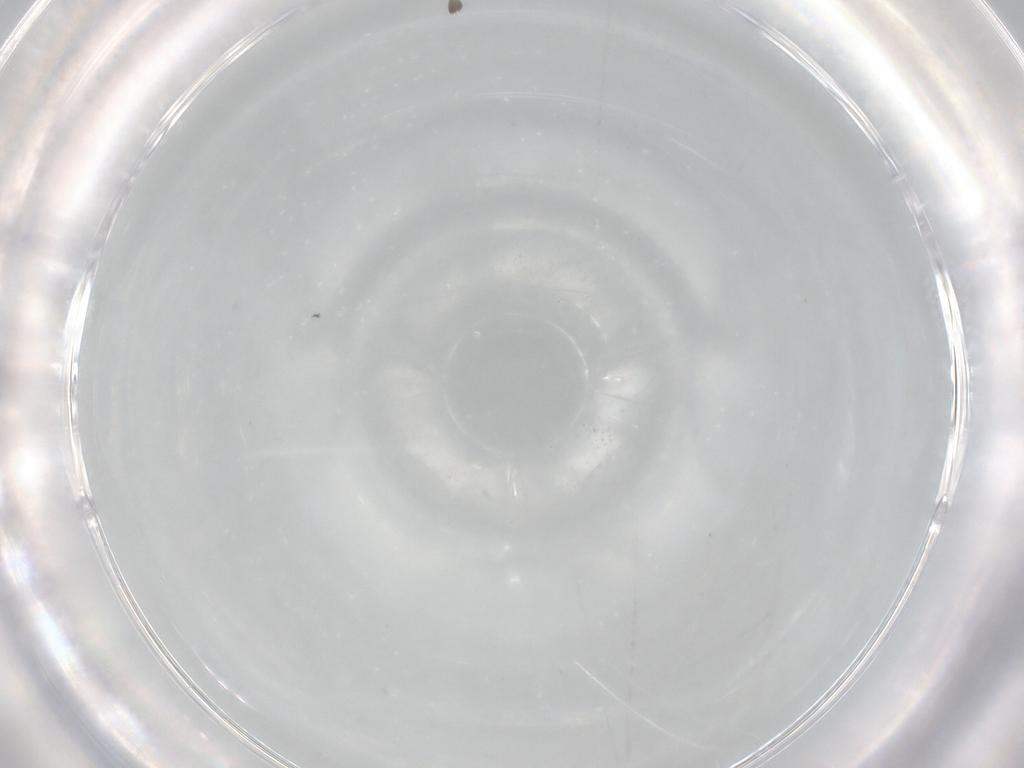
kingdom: Animalia
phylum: Arthropoda
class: Insecta
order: Diptera
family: Tachinidae
